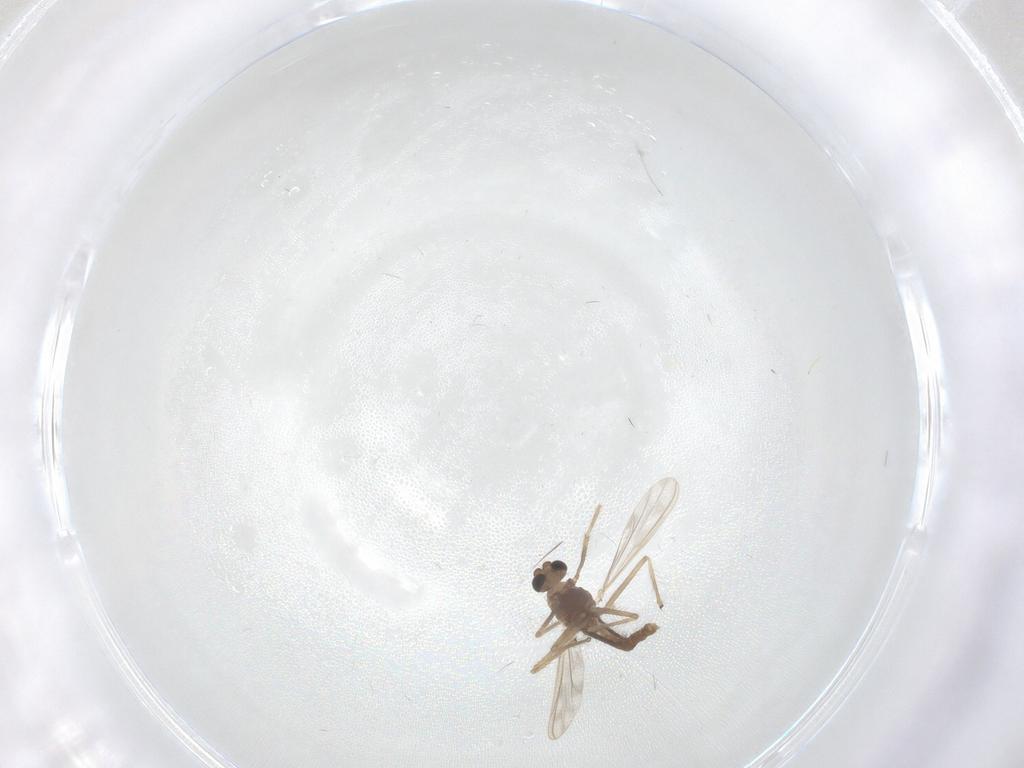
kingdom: Animalia
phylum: Arthropoda
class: Insecta
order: Diptera
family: Chironomidae
